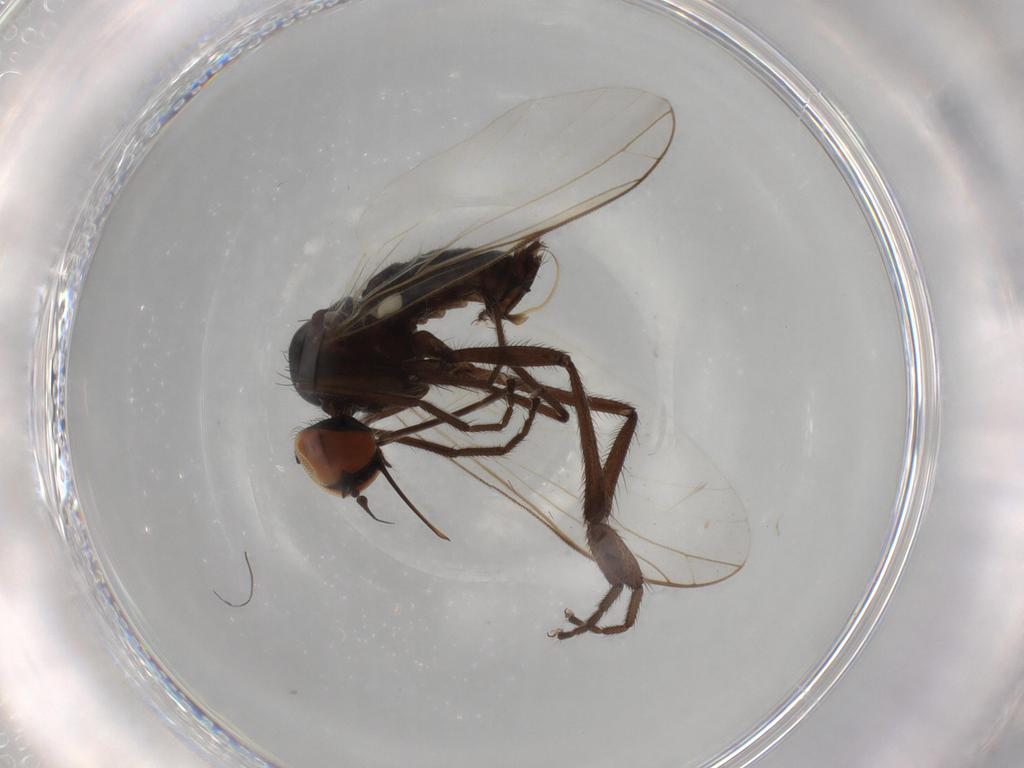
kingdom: Animalia
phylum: Arthropoda
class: Insecta
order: Diptera
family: Empididae
